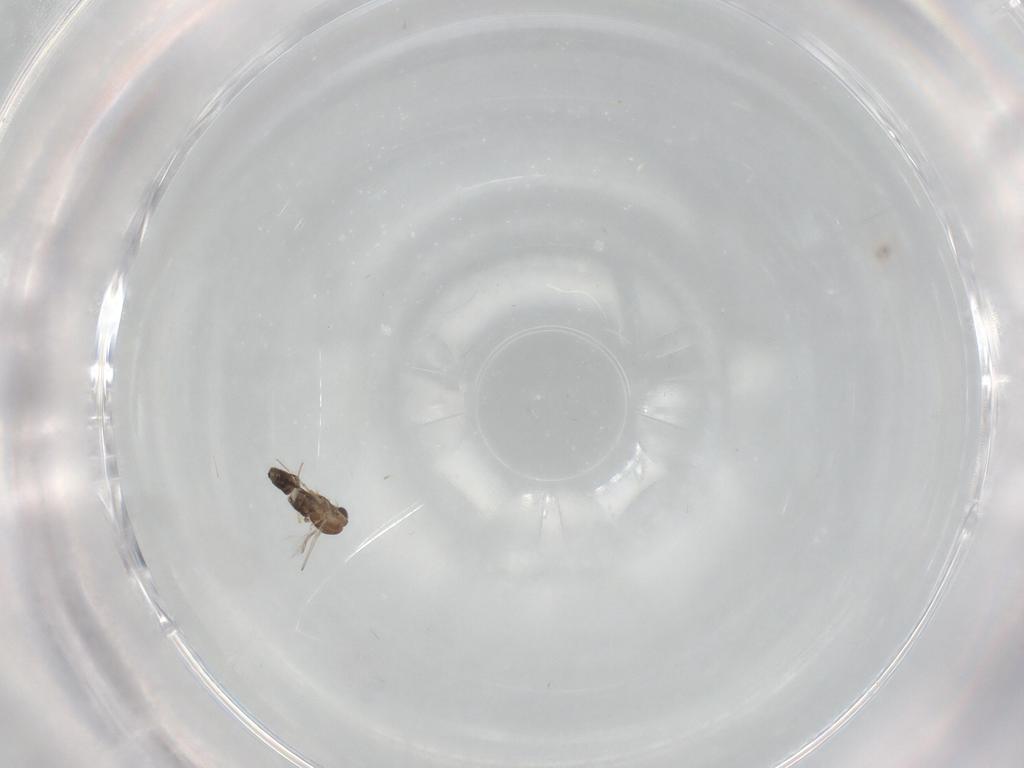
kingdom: Animalia
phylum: Arthropoda
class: Insecta
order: Diptera
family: Chironomidae
